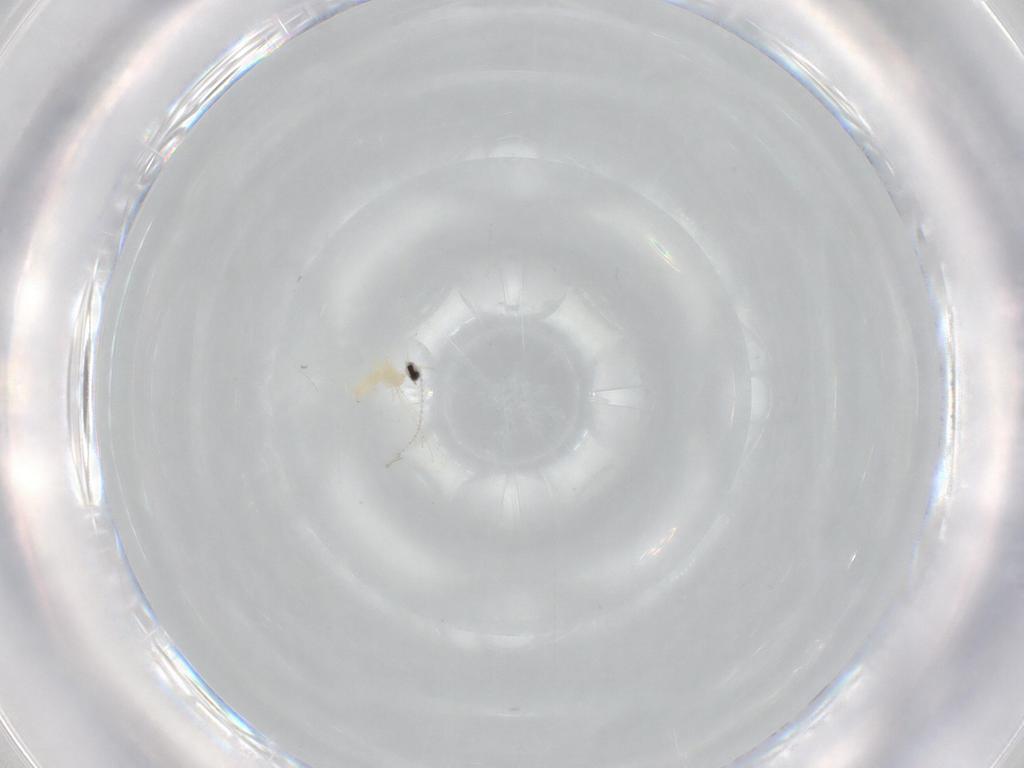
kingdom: Animalia
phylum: Arthropoda
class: Insecta
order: Diptera
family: Cecidomyiidae
